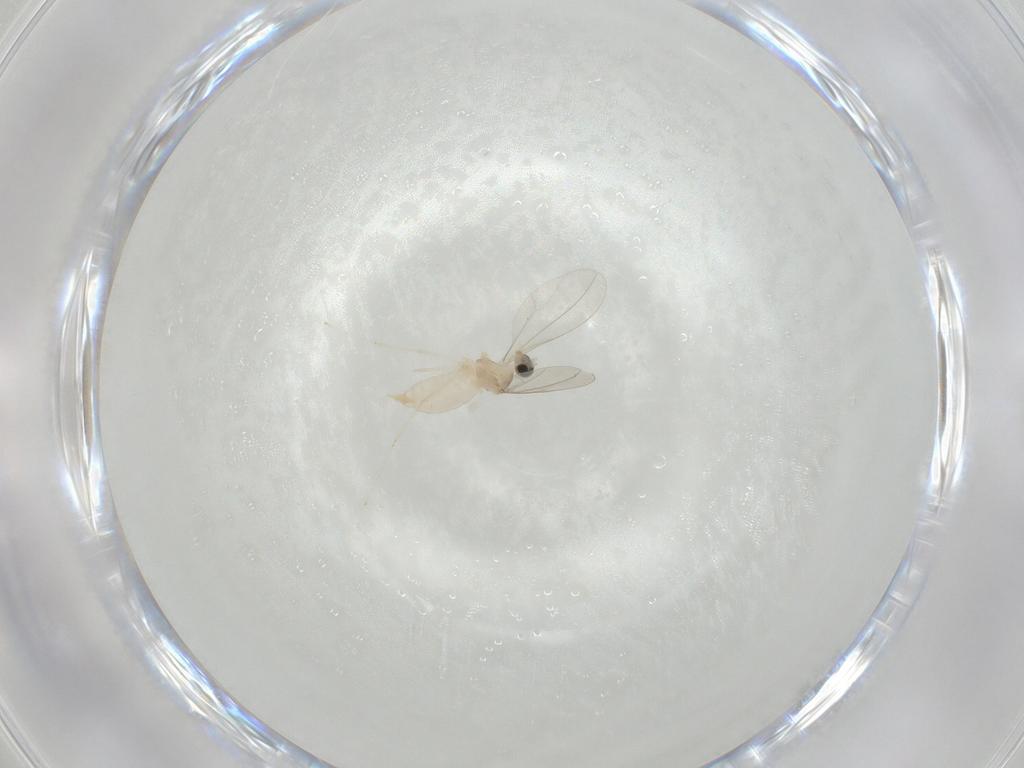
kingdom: Animalia
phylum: Arthropoda
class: Insecta
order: Diptera
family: Cecidomyiidae
